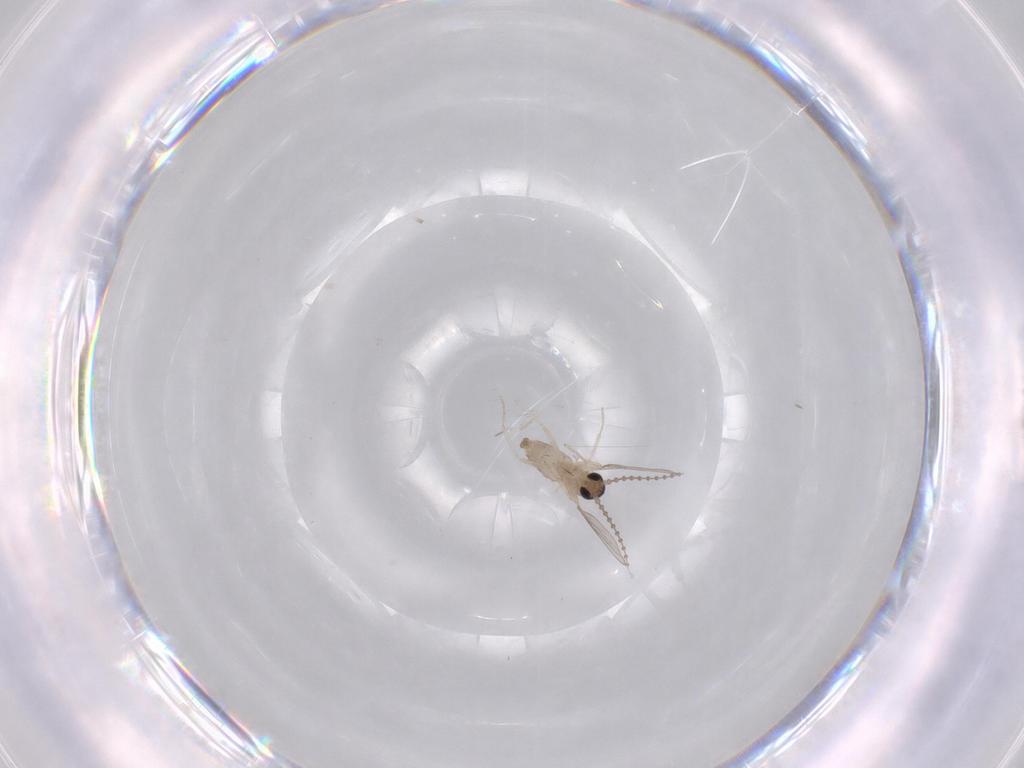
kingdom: Animalia
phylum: Arthropoda
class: Insecta
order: Diptera
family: Cecidomyiidae
